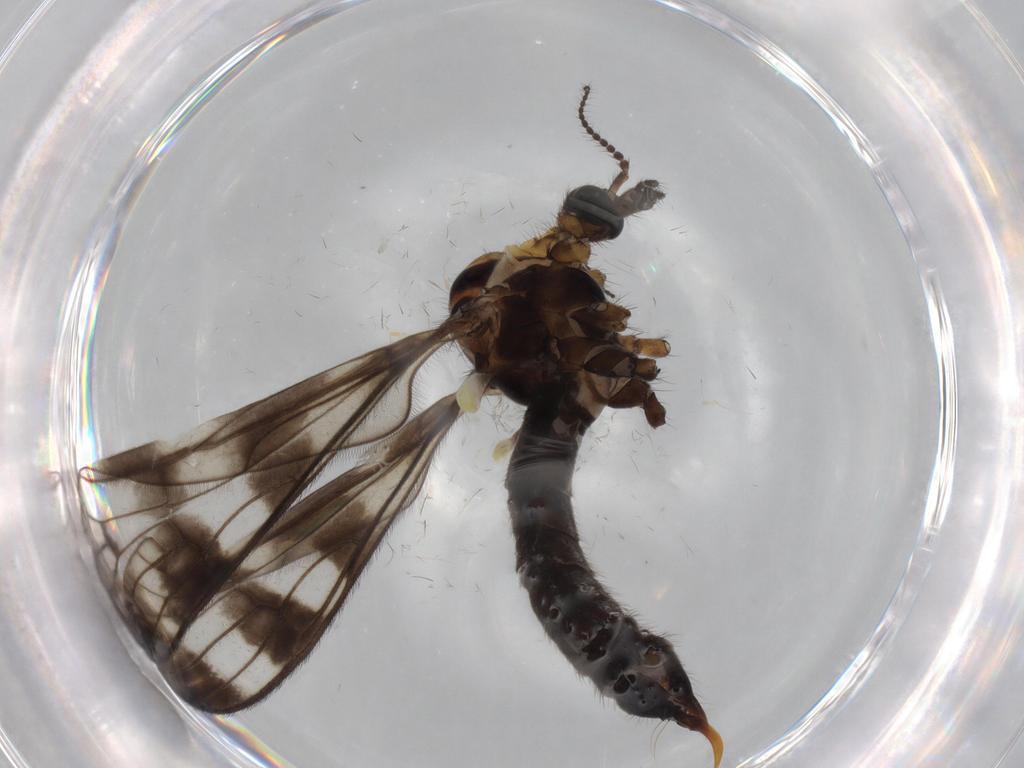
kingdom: Animalia
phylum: Arthropoda
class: Insecta
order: Diptera
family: Limoniidae
